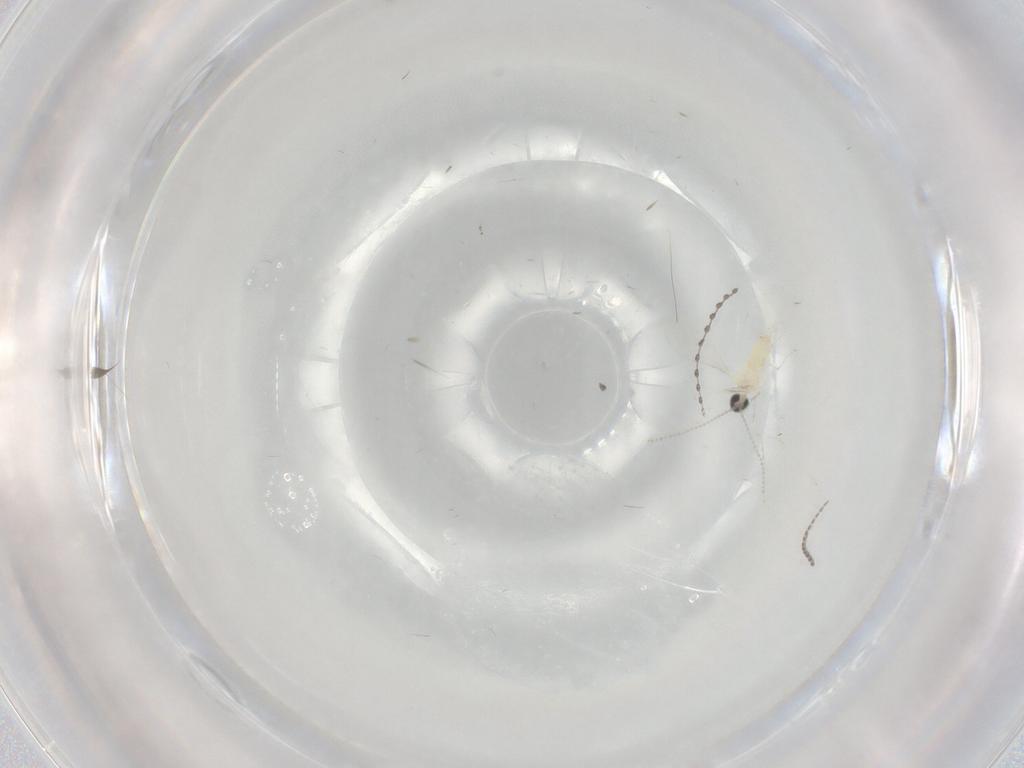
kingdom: Animalia
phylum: Arthropoda
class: Insecta
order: Diptera
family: Cecidomyiidae
